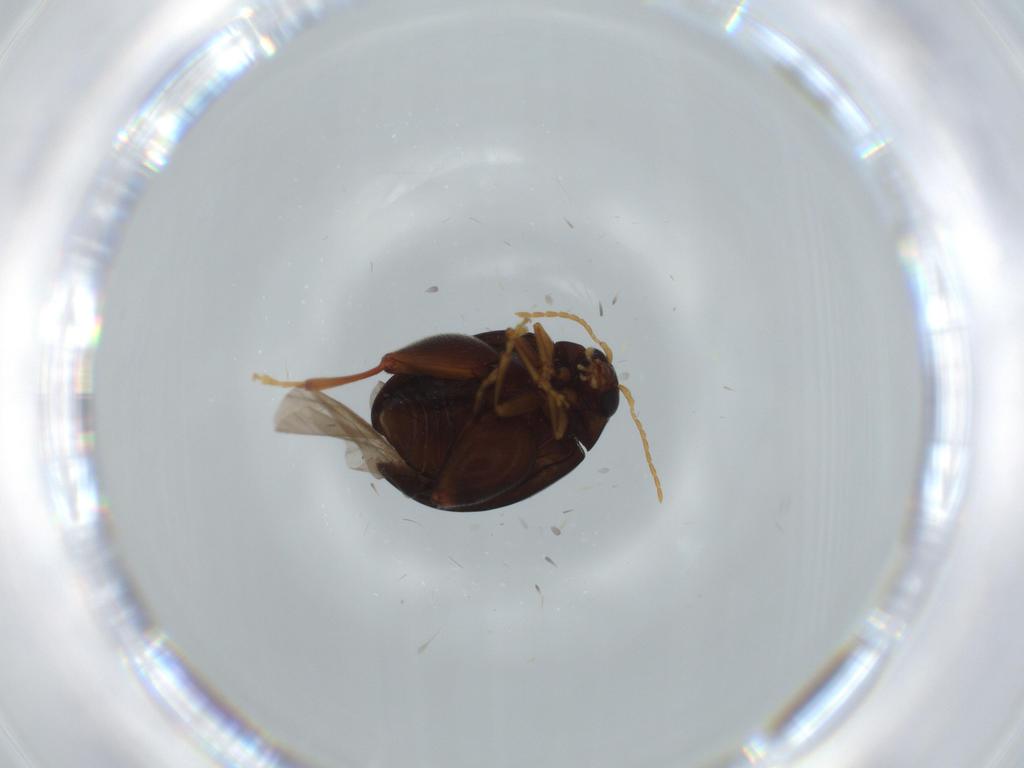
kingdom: Animalia
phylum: Arthropoda
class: Insecta
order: Coleoptera
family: Chrysomelidae
